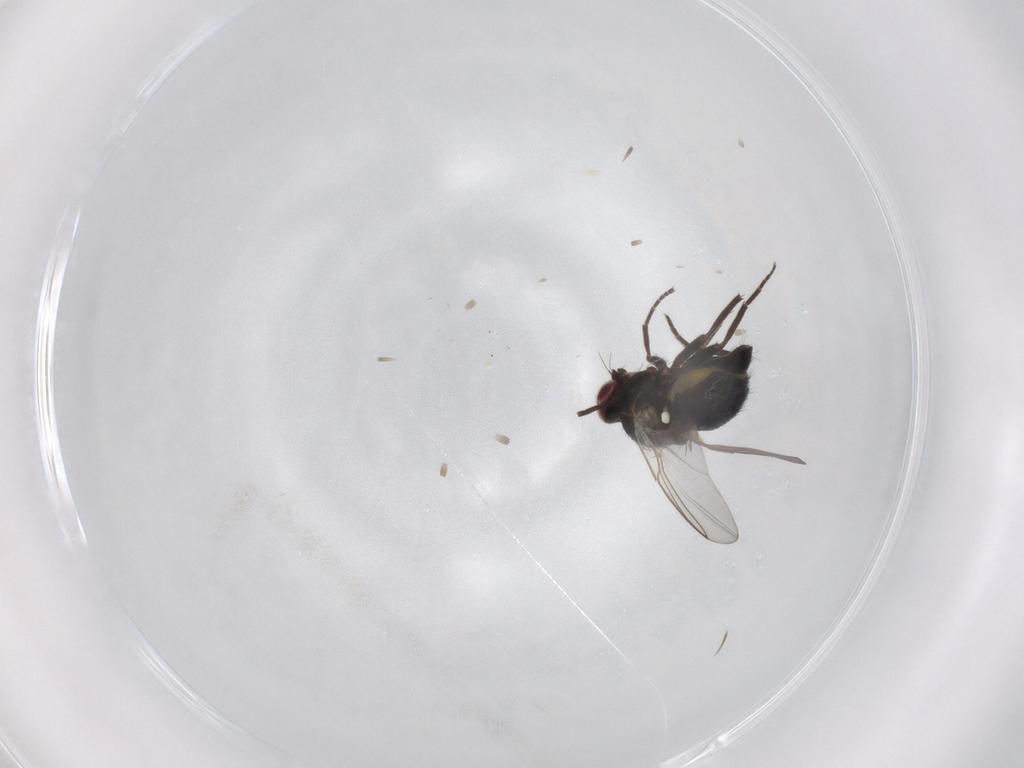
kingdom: Animalia
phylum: Arthropoda
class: Insecta
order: Diptera
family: Agromyzidae
